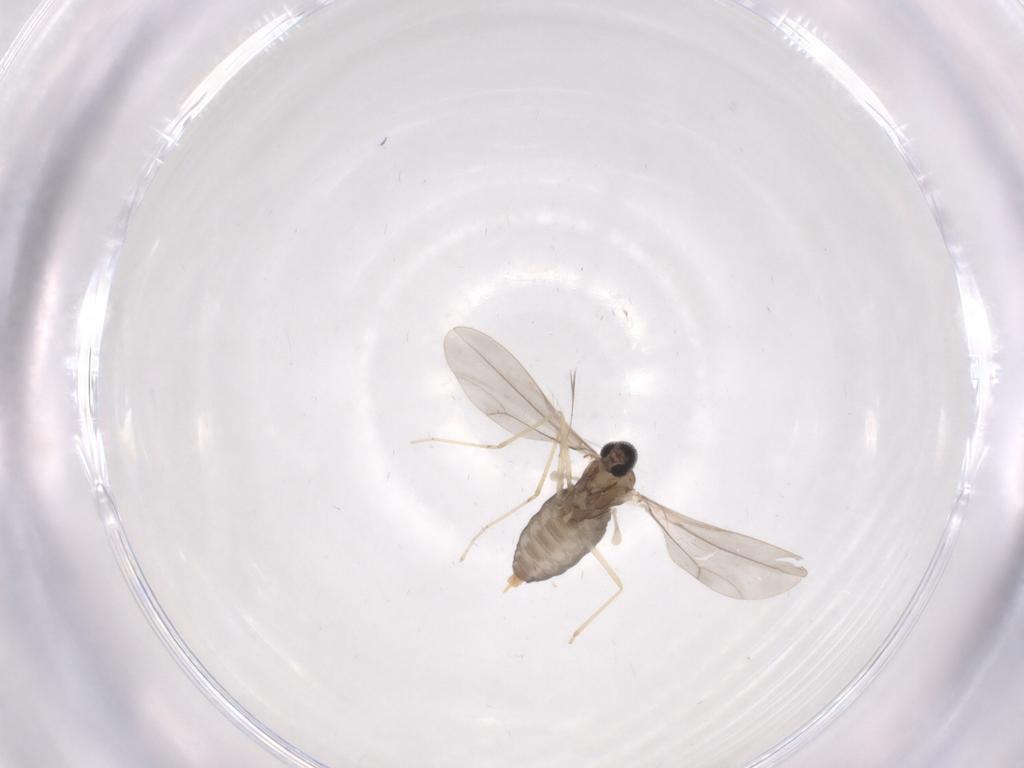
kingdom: Animalia
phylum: Arthropoda
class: Insecta
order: Diptera
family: Cecidomyiidae
